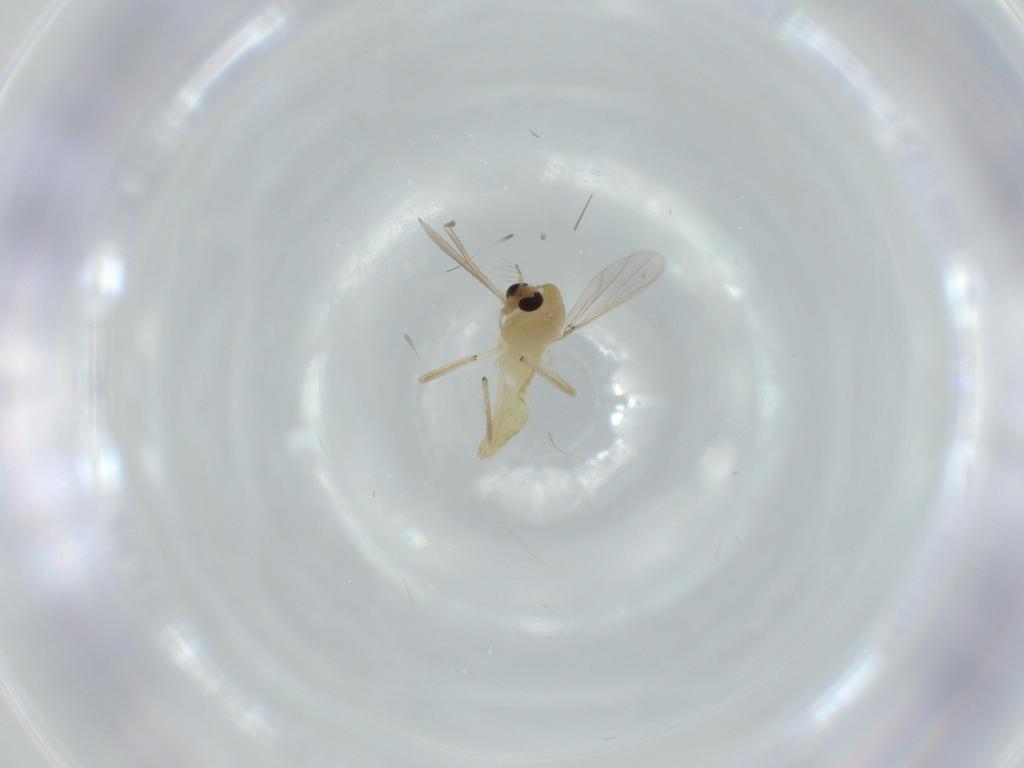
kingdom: Animalia
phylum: Arthropoda
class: Insecta
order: Diptera
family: Chironomidae
